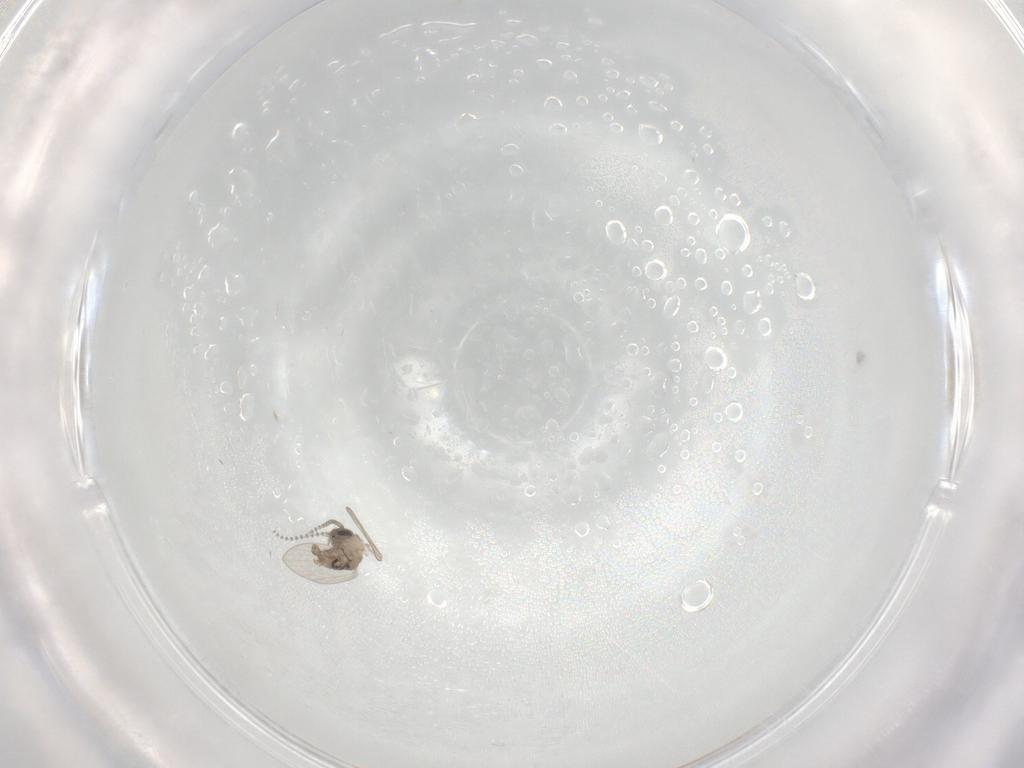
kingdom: Animalia
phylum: Arthropoda
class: Insecta
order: Diptera
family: Psychodidae
